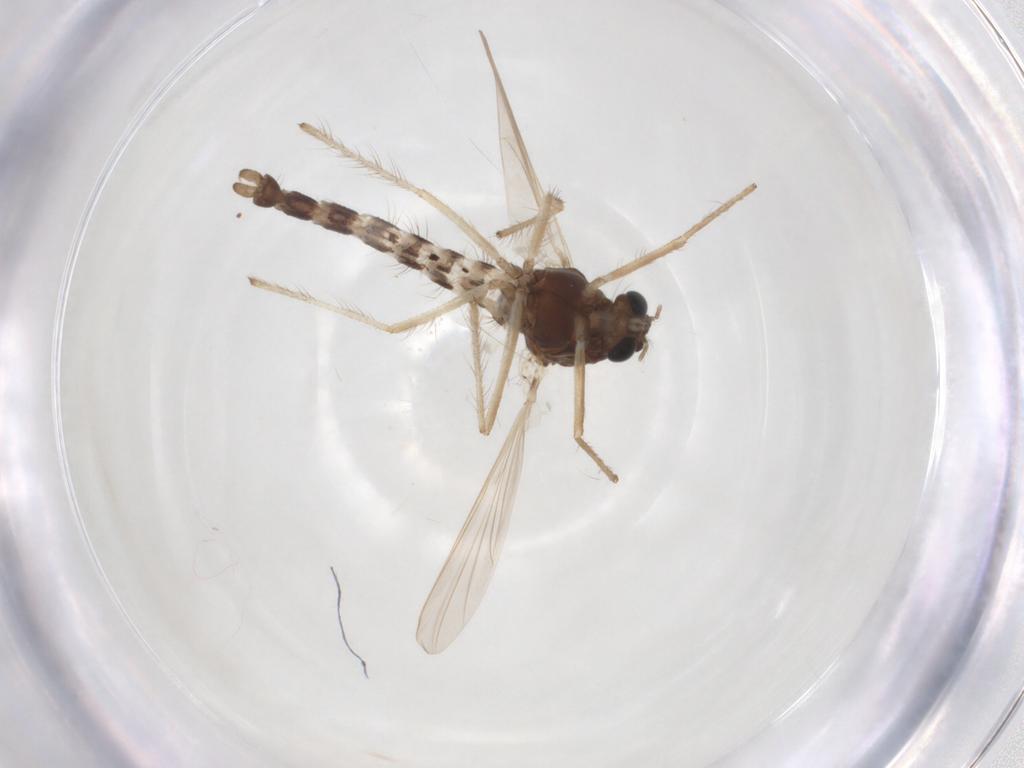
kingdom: Animalia
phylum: Arthropoda
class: Insecta
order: Diptera
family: Chironomidae
